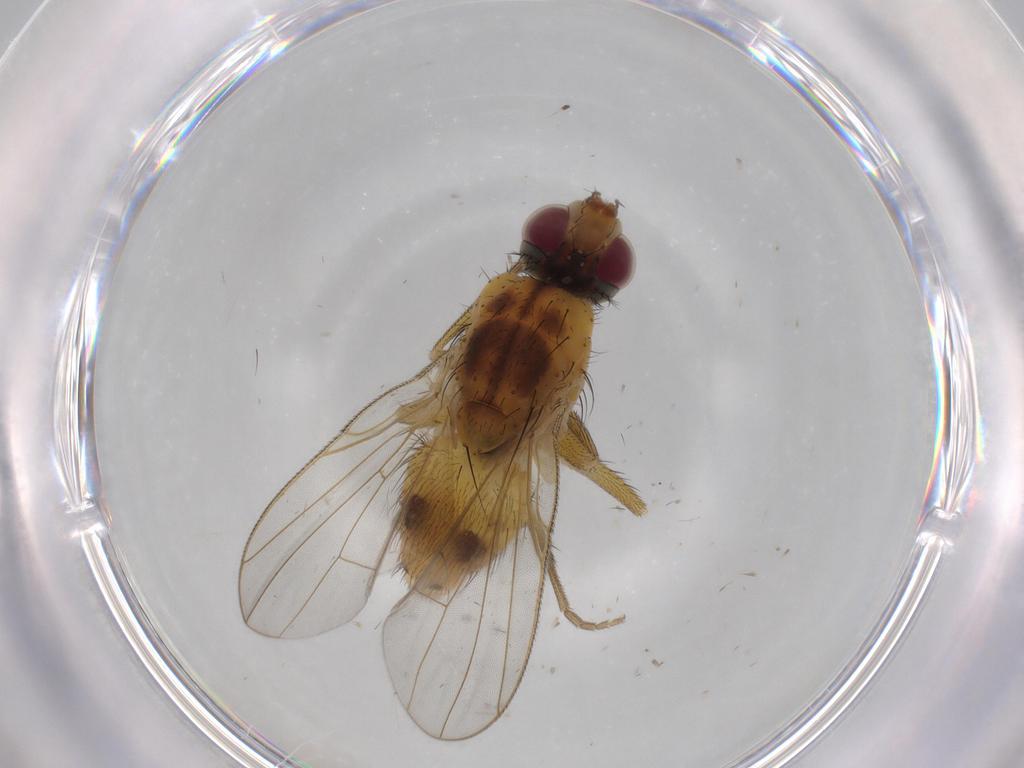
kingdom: Animalia
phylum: Arthropoda
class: Insecta
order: Diptera
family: Muscidae
